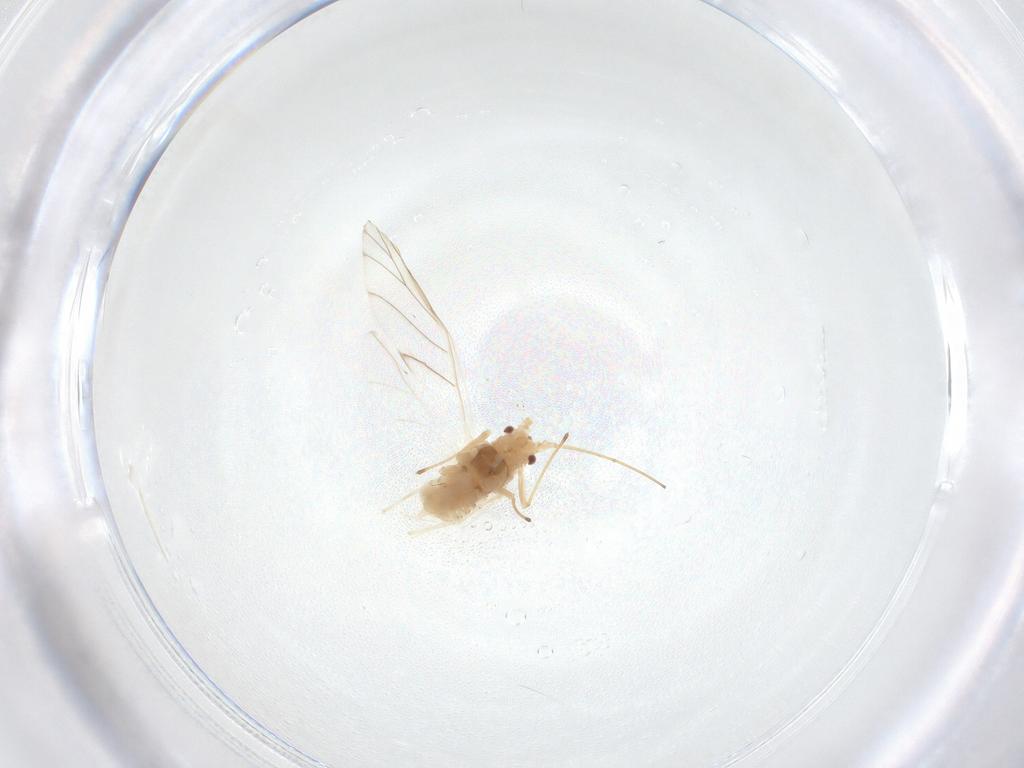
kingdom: Animalia
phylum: Arthropoda
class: Insecta
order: Hemiptera
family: Aphididae
